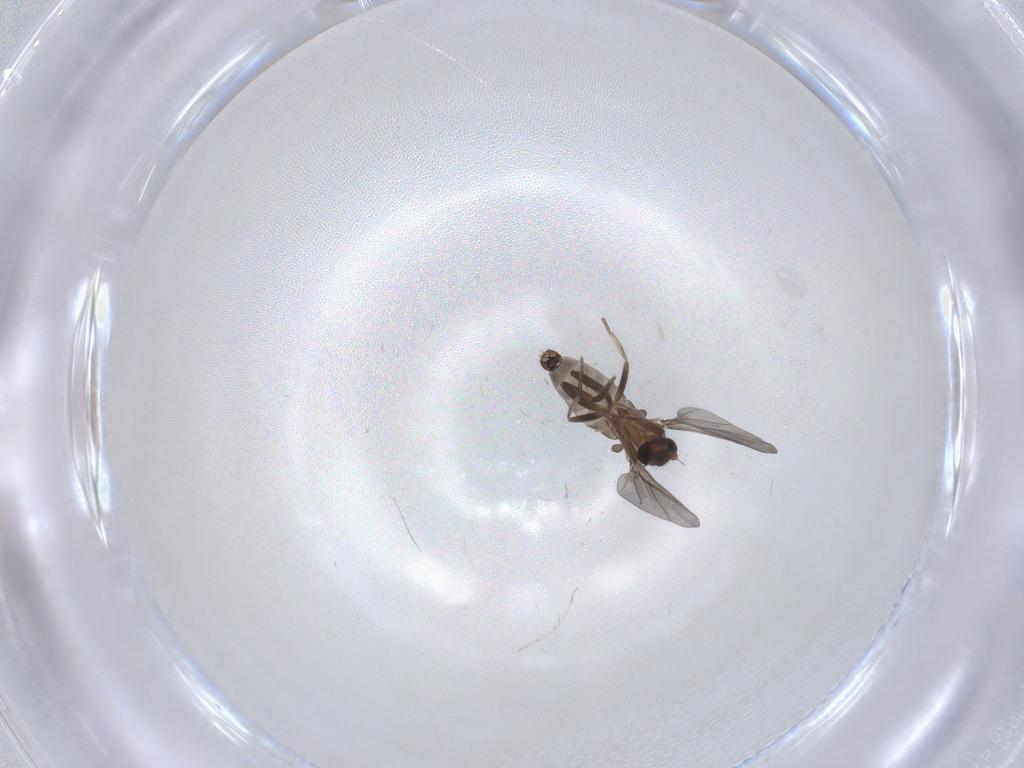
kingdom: Animalia
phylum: Arthropoda
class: Insecta
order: Diptera
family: Phoridae
